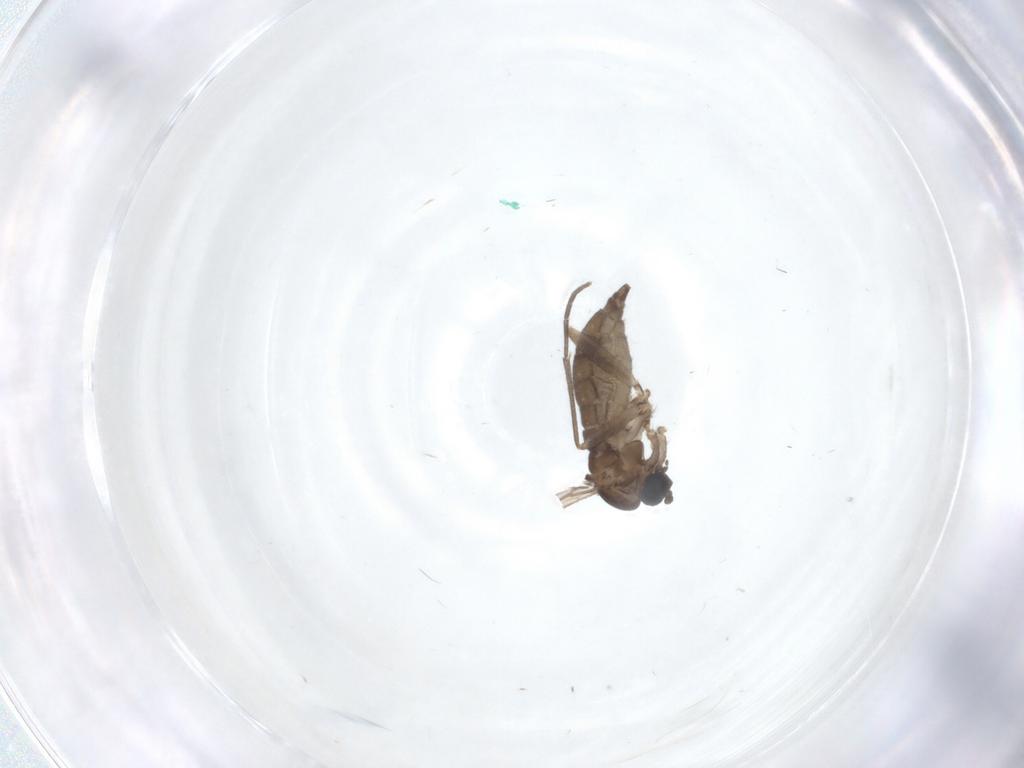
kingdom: Animalia
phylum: Arthropoda
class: Insecta
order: Diptera
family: Sciaridae
